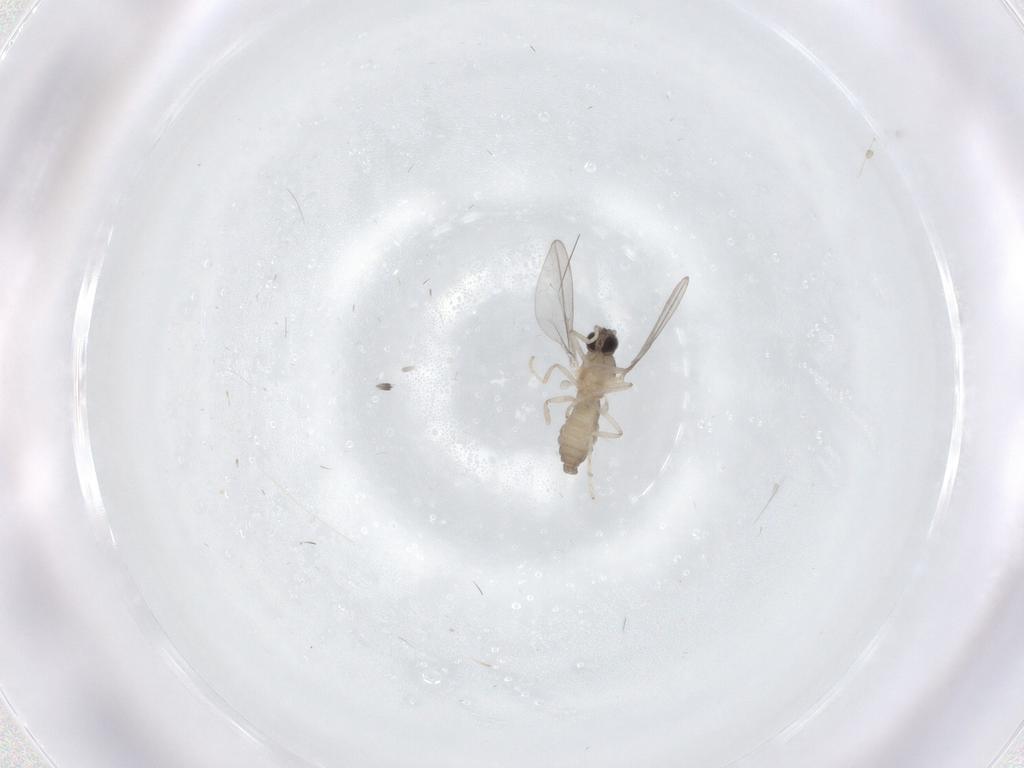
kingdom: Animalia
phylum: Arthropoda
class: Insecta
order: Diptera
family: Cecidomyiidae
